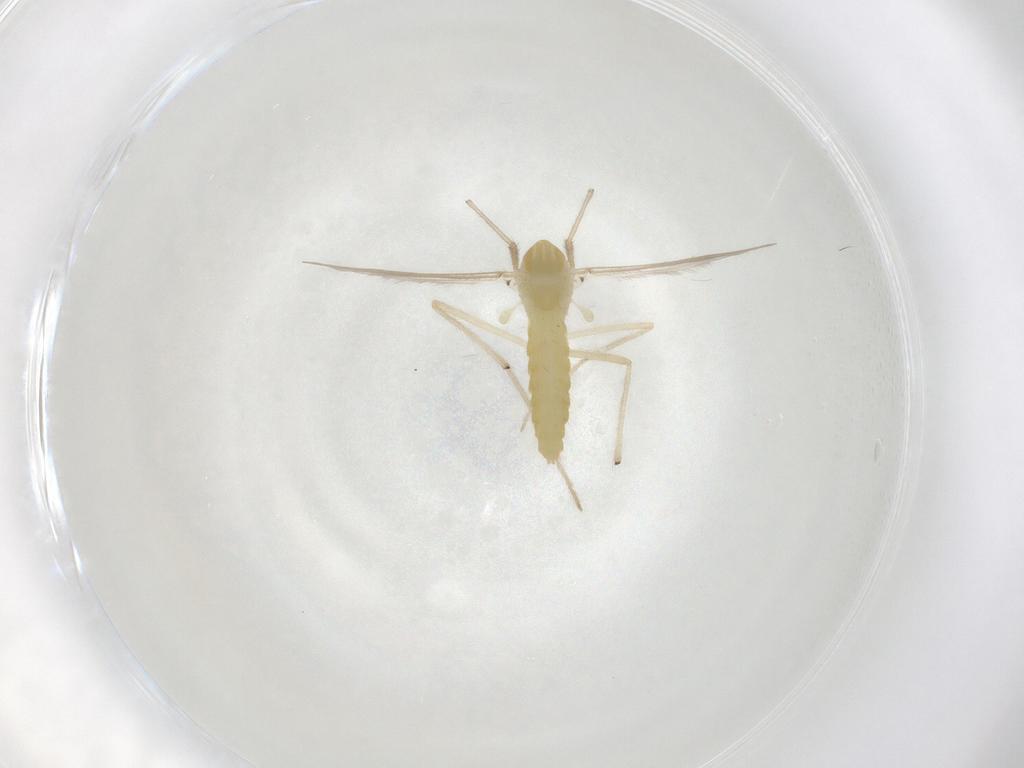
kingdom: Animalia
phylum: Arthropoda
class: Insecta
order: Diptera
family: Chironomidae
